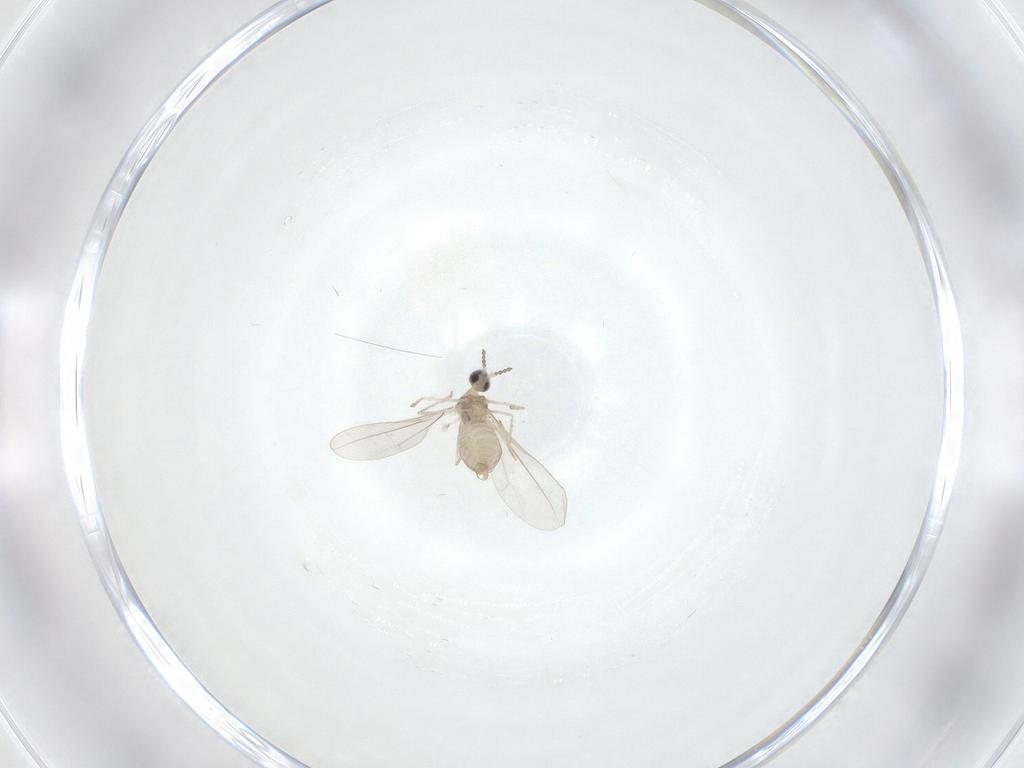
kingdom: Animalia
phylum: Arthropoda
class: Insecta
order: Diptera
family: Cecidomyiidae
